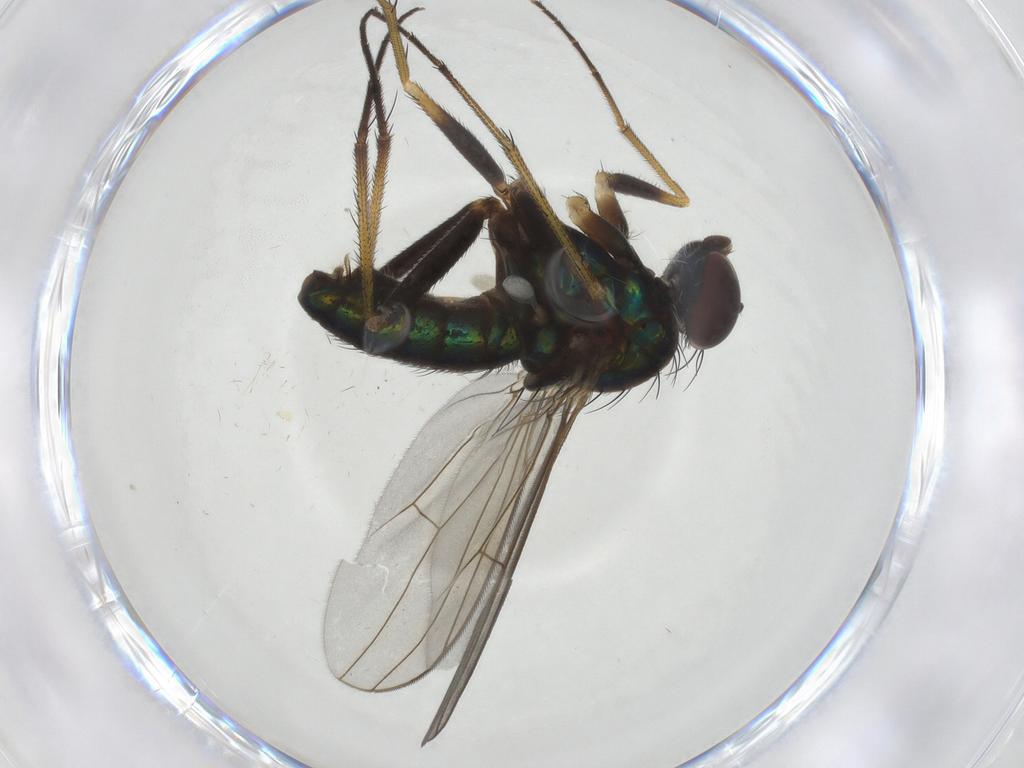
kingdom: Animalia
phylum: Arthropoda
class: Insecta
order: Diptera
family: Dolichopodidae
